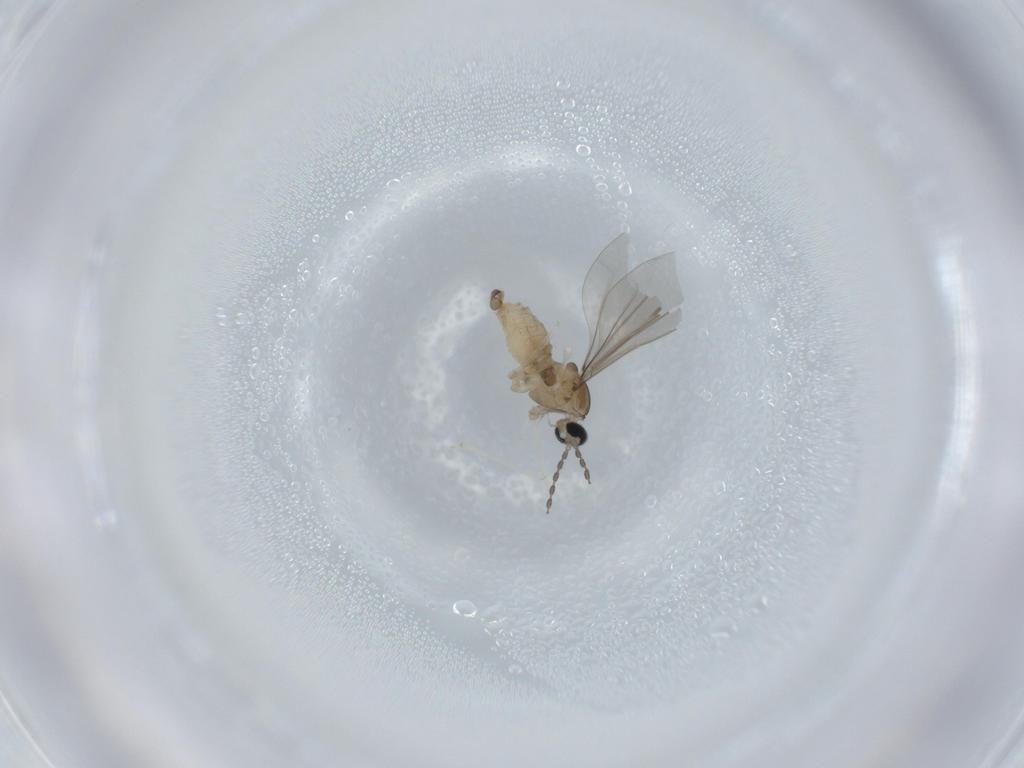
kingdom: Animalia
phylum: Arthropoda
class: Insecta
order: Diptera
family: Cecidomyiidae
